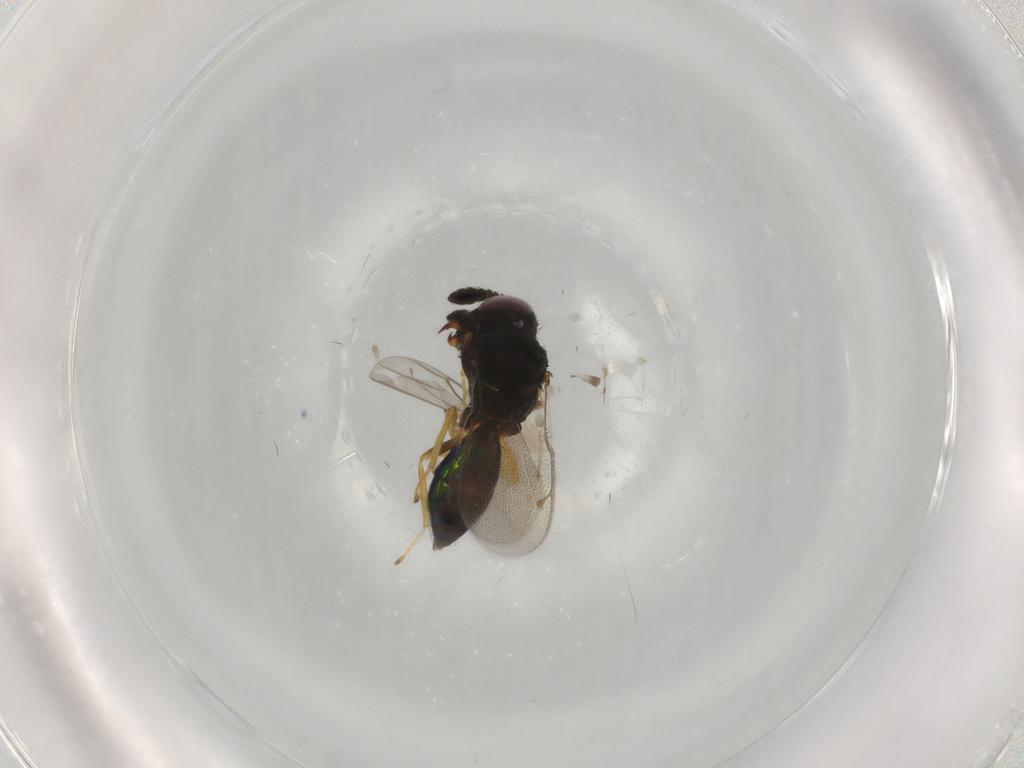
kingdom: Animalia
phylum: Arthropoda
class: Insecta
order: Hymenoptera
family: Pteromalidae
